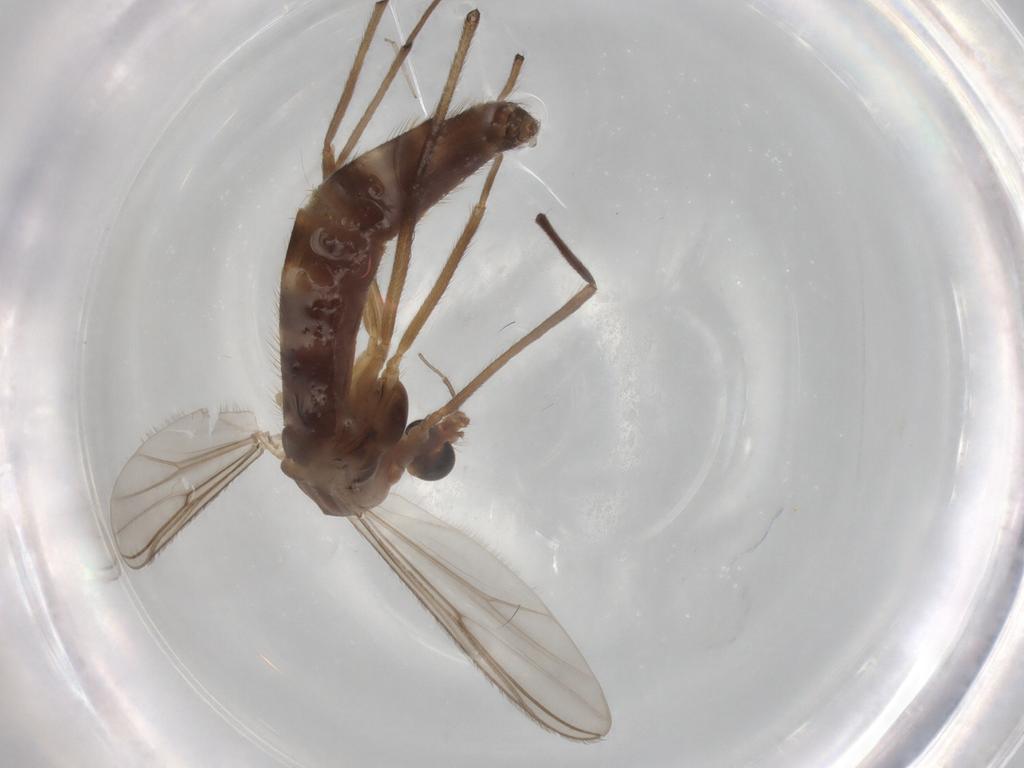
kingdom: Animalia
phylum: Arthropoda
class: Insecta
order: Diptera
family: Chironomidae
